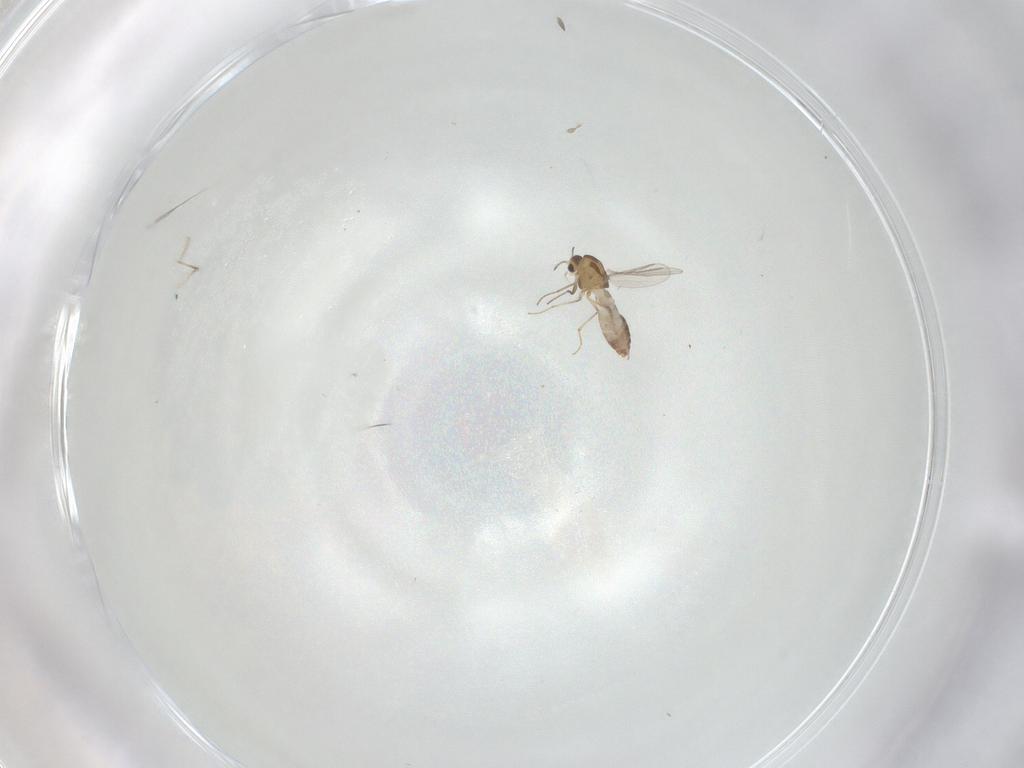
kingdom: Animalia
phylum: Arthropoda
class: Insecta
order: Diptera
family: Chironomidae
